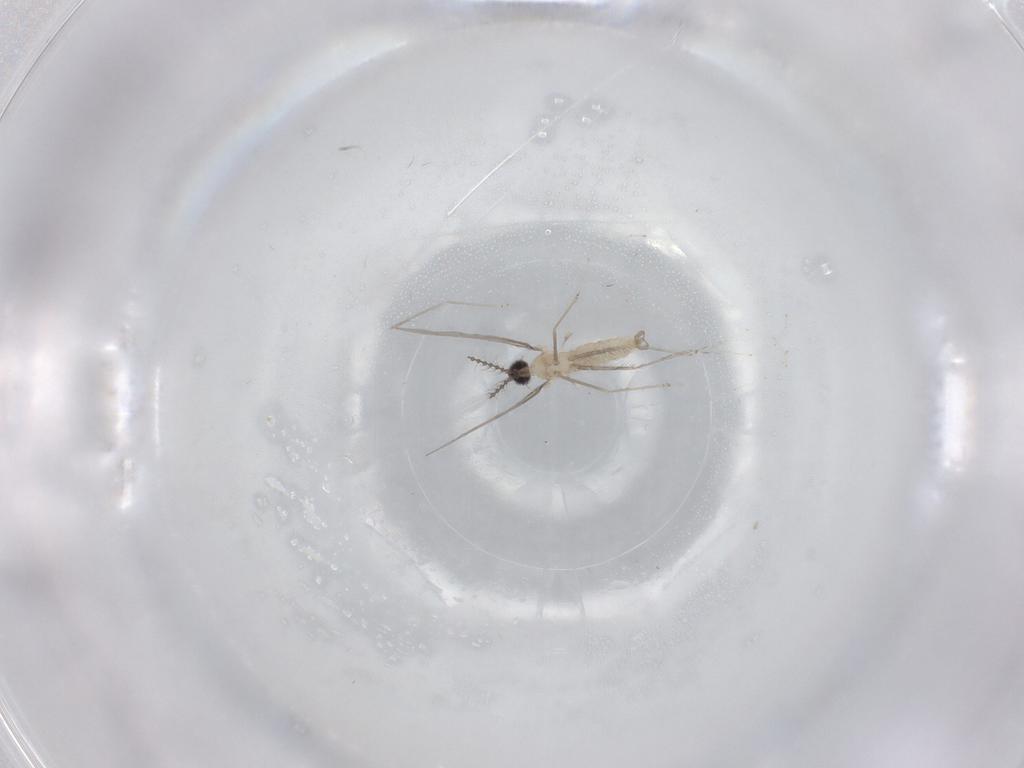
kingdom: Animalia
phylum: Arthropoda
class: Insecta
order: Diptera
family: Cecidomyiidae
